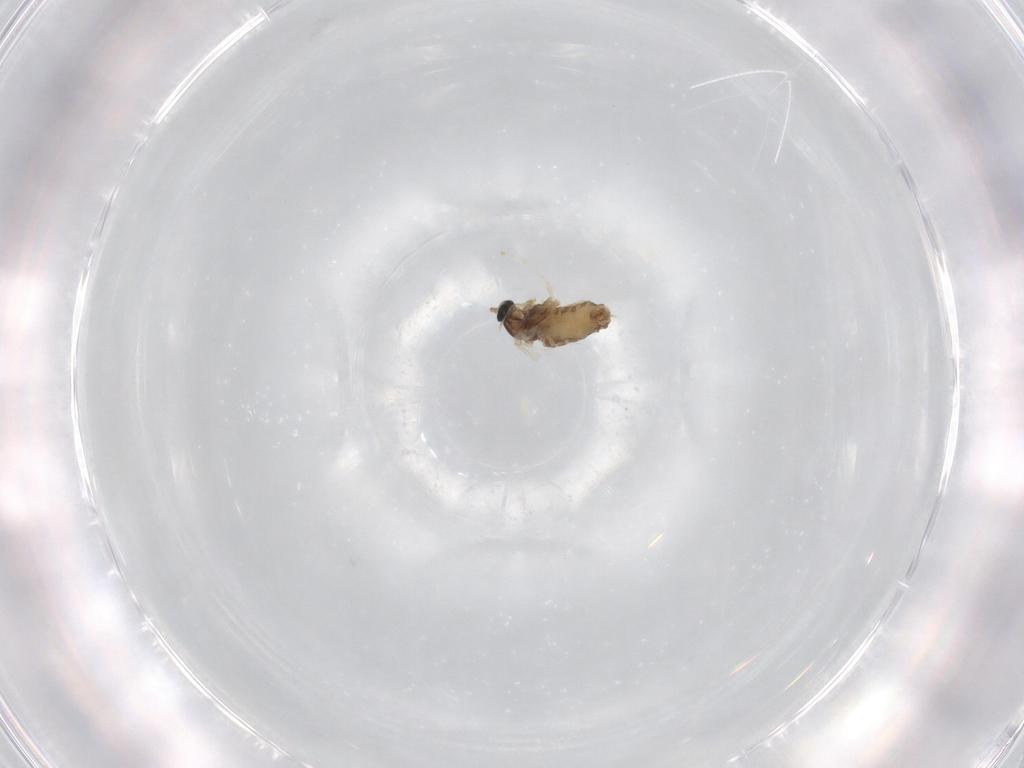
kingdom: Animalia
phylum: Arthropoda
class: Insecta
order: Diptera
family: Cecidomyiidae
